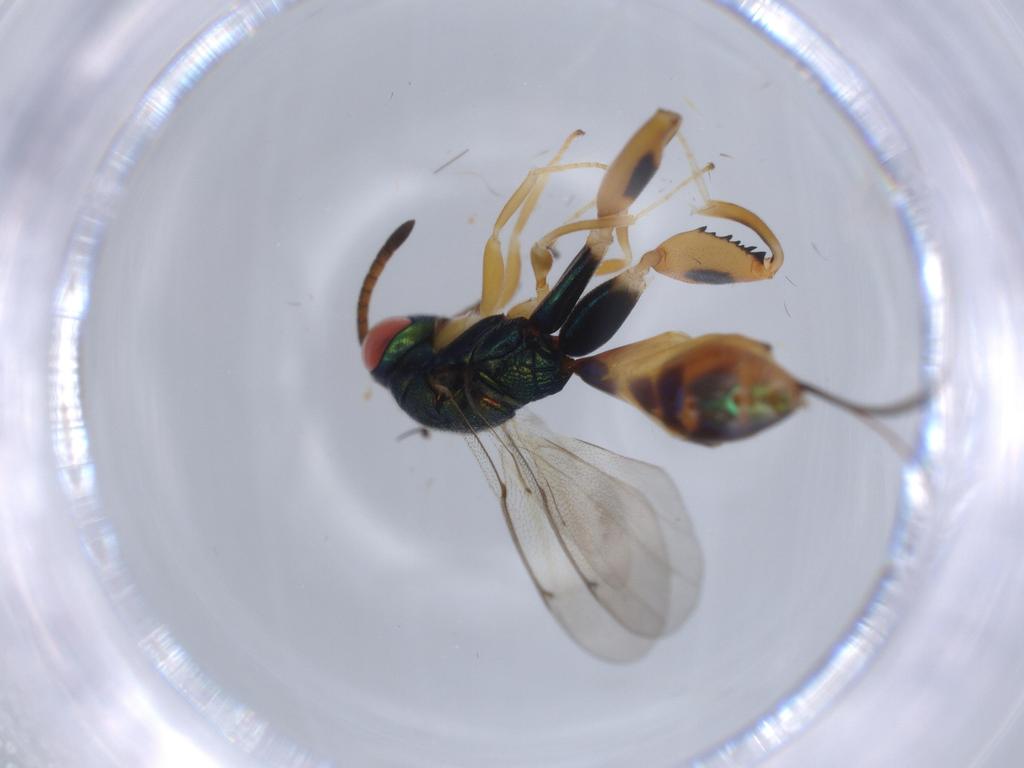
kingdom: Animalia
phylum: Arthropoda
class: Insecta
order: Hymenoptera
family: Torymidae
